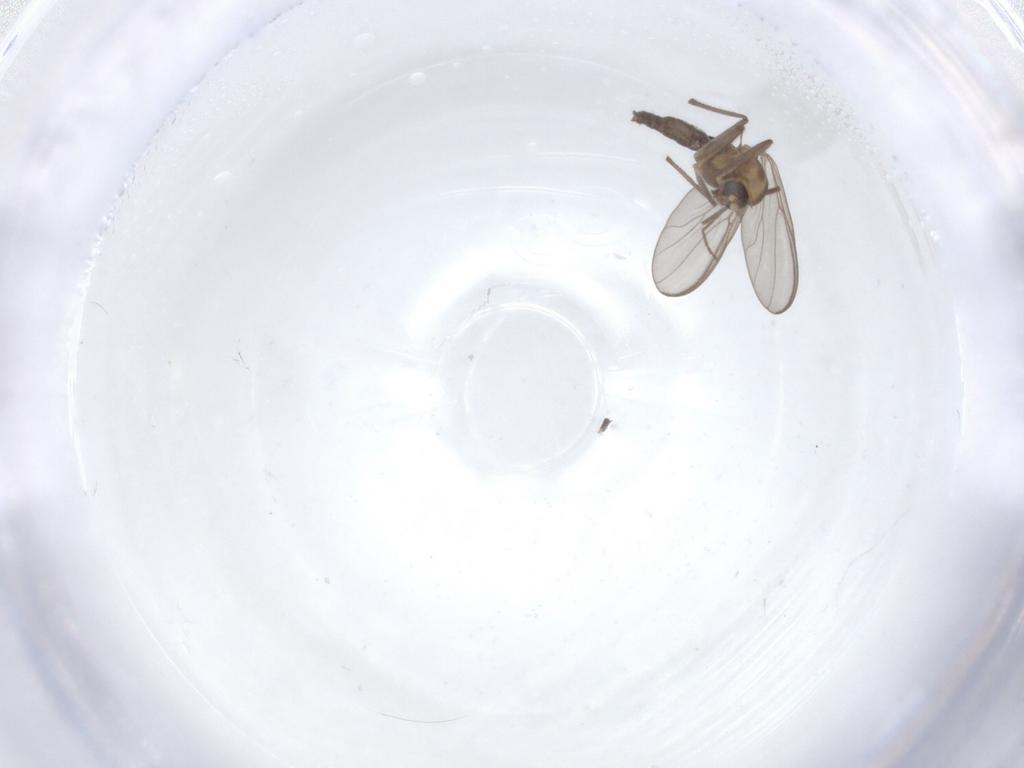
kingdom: Animalia
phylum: Arthropoda
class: Insecta
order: Diptera
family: Chironomidae
